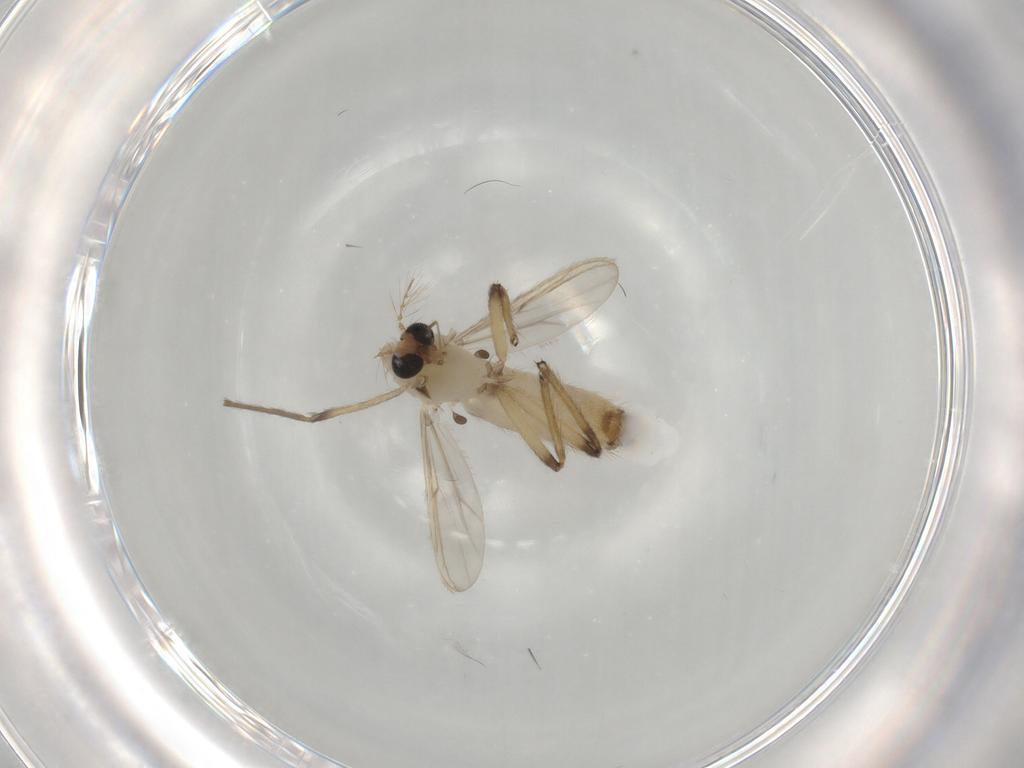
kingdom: Animalia
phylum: Arthropoda
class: Insecta
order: Diptera
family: Chironomidae
